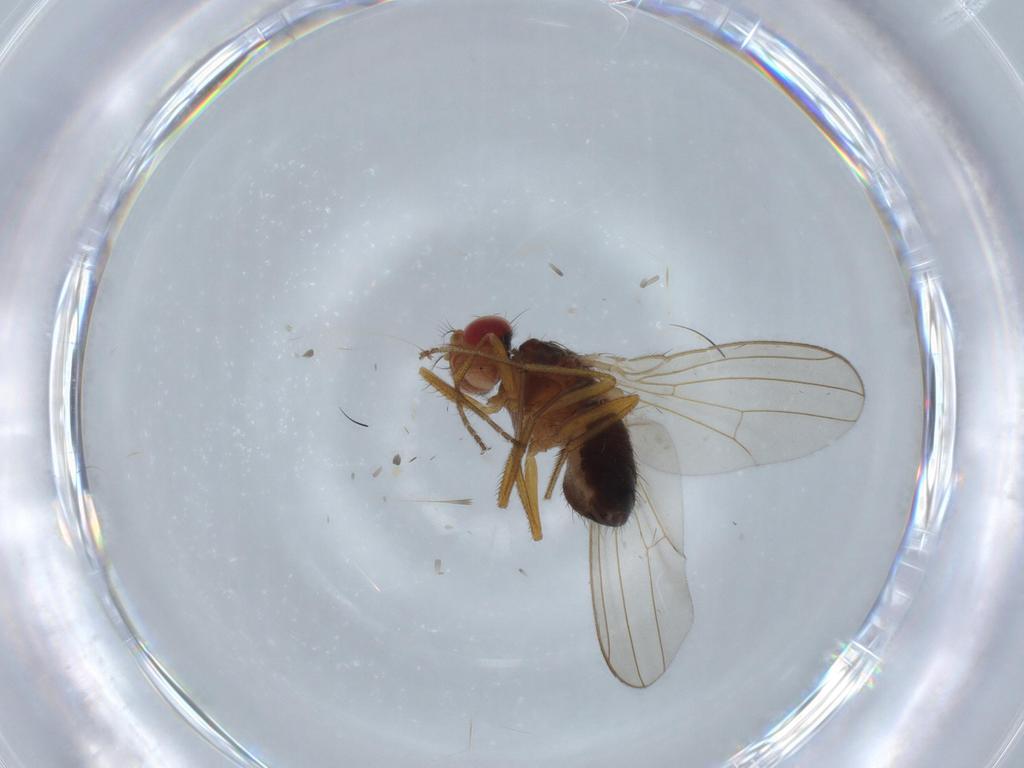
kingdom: Animalia
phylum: Arthropoda
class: Insecta
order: Diptera
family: Drosophilidae
